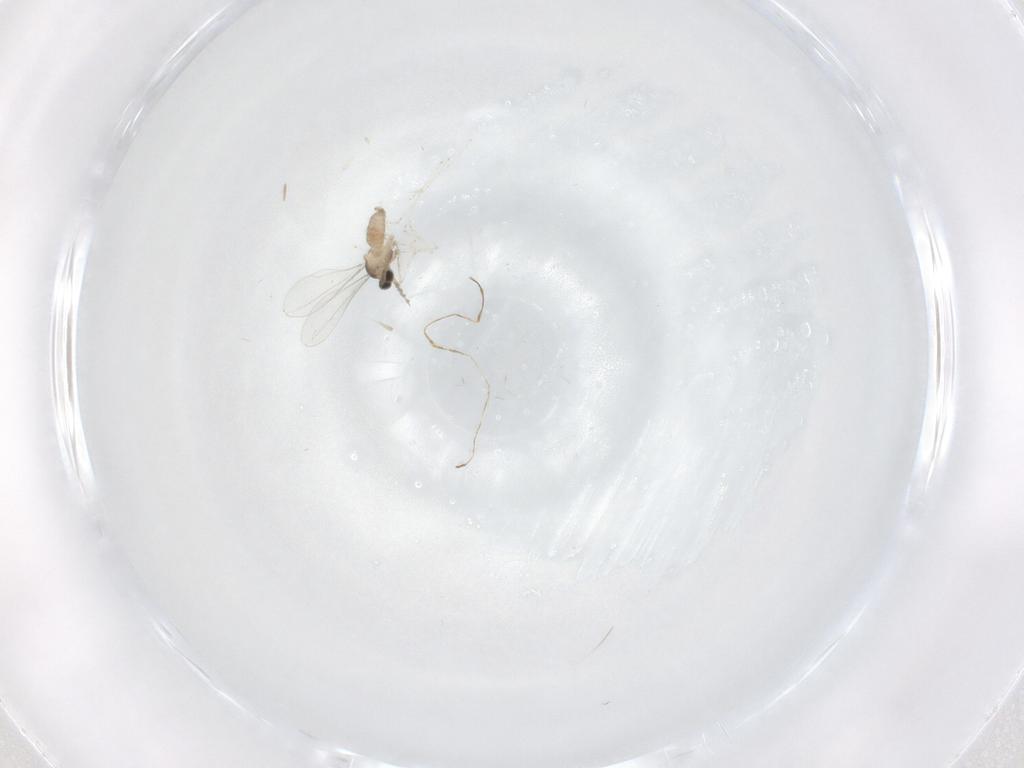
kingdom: Animalia
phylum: Arthropoda
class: Insecta
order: Diptera
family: Cecidomyiidae
